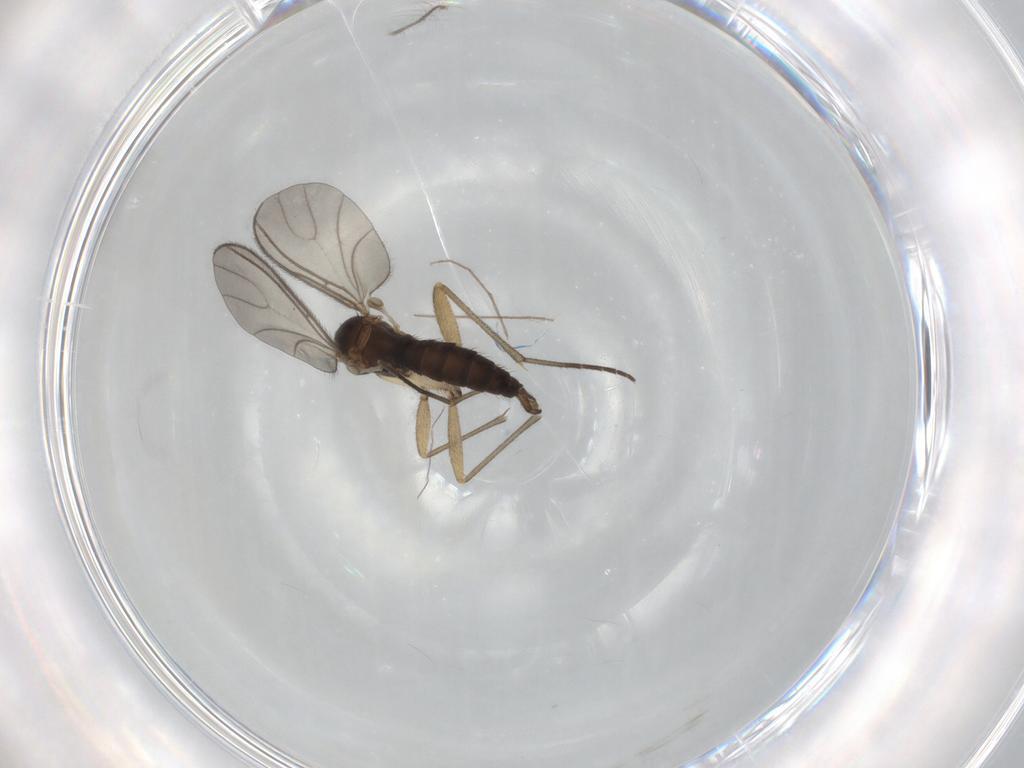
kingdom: Animalia
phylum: Arthropoda
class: Insecta
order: Diptera
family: Sciaridae
